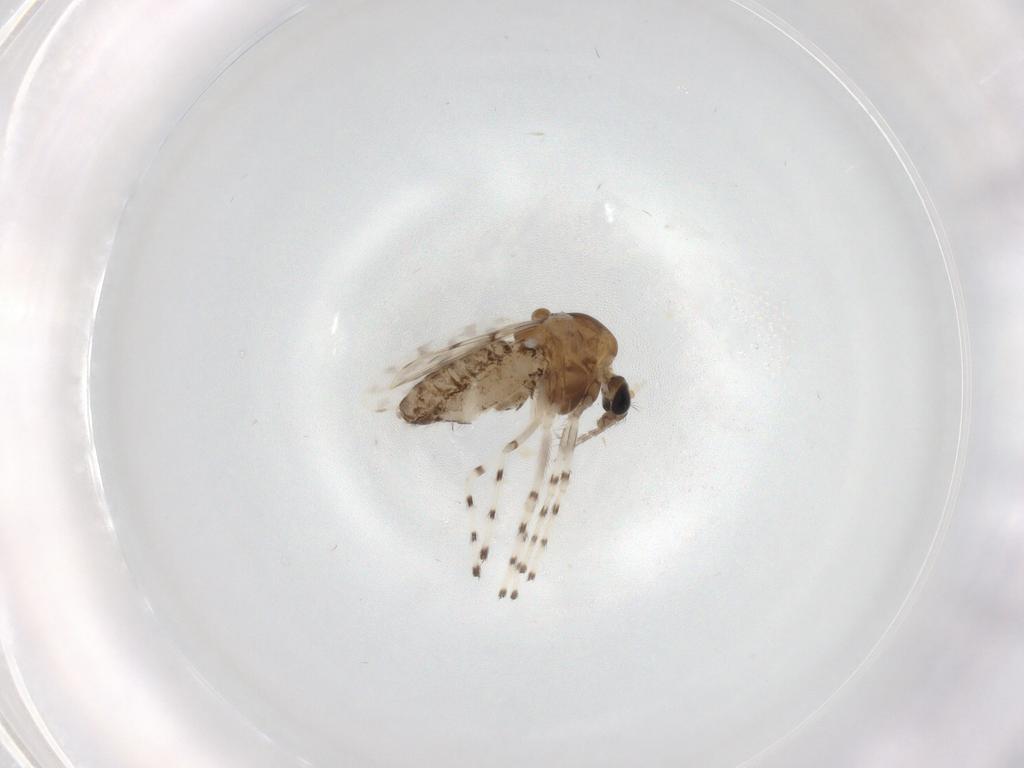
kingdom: Animalia
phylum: Arthropoda
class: Insecta
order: Diptera
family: Chironomidae
